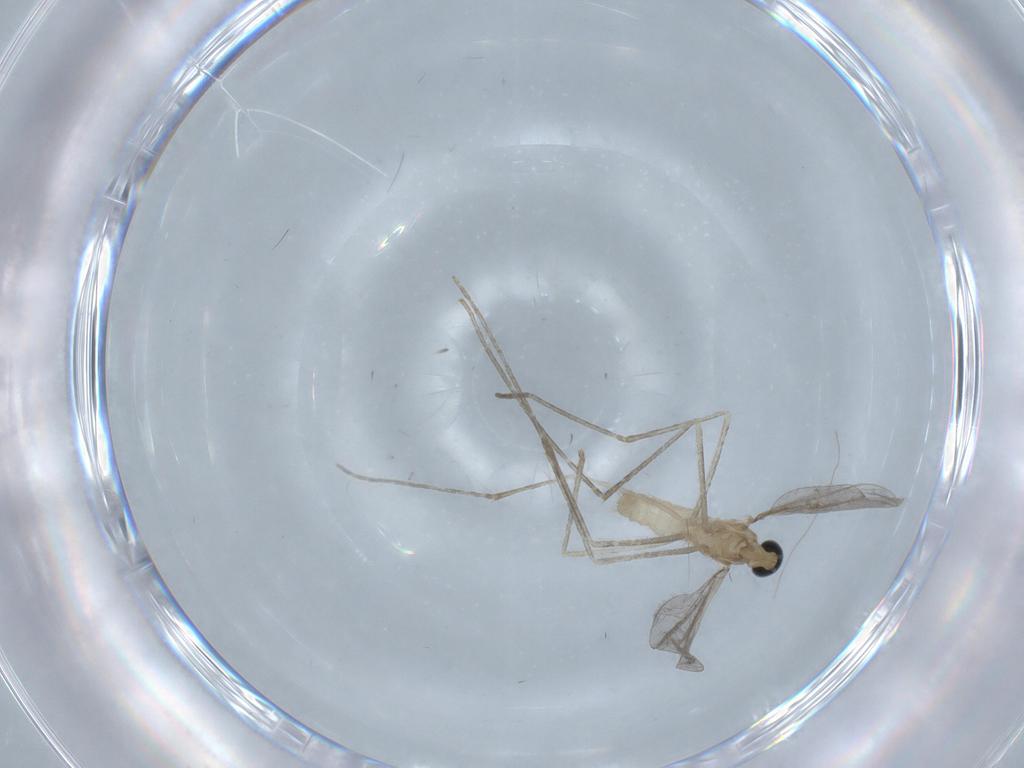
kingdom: Animalia
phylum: Arthropoda
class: Insecta
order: Diptera
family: Cecidomyiidae
